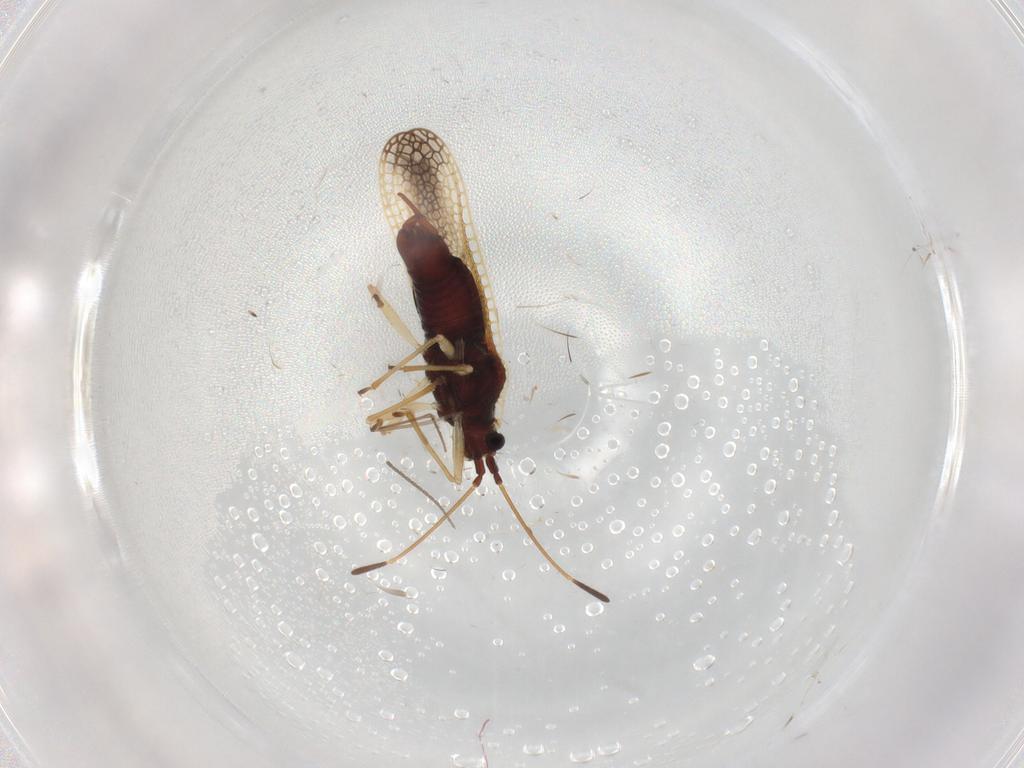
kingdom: Animalia
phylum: Arthropoda
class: Insecta
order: Hemiptera
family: Tingidae
